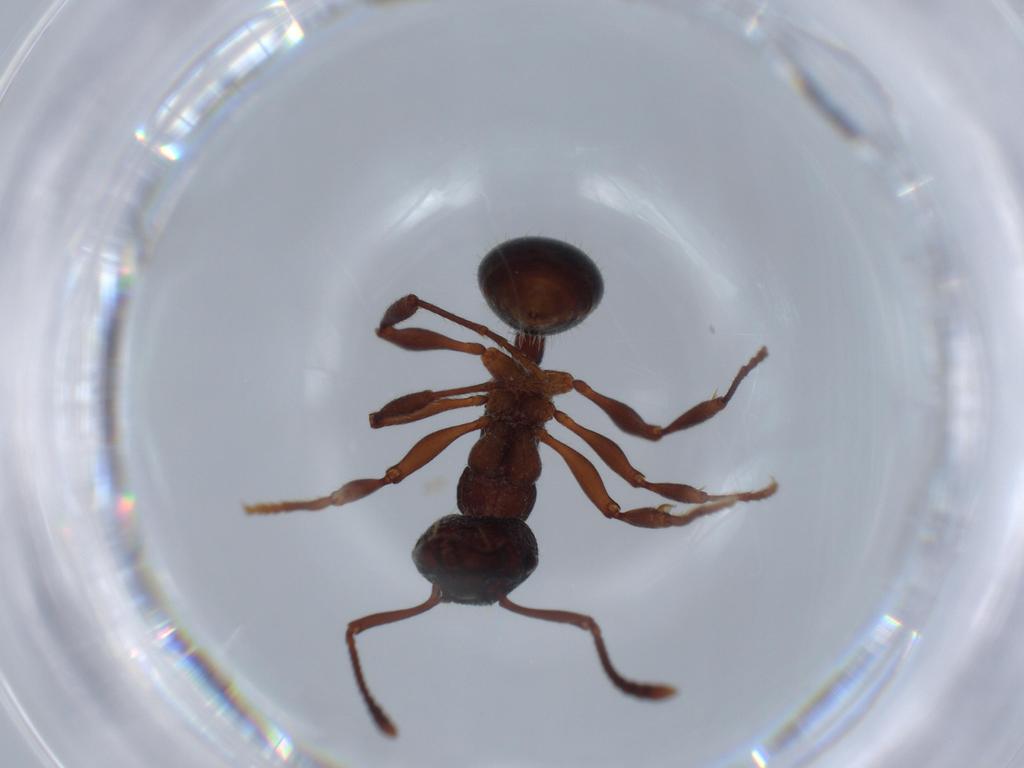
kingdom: Animalia
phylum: Arthropoda
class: Insecta
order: Hymenoptera
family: Formicidae
